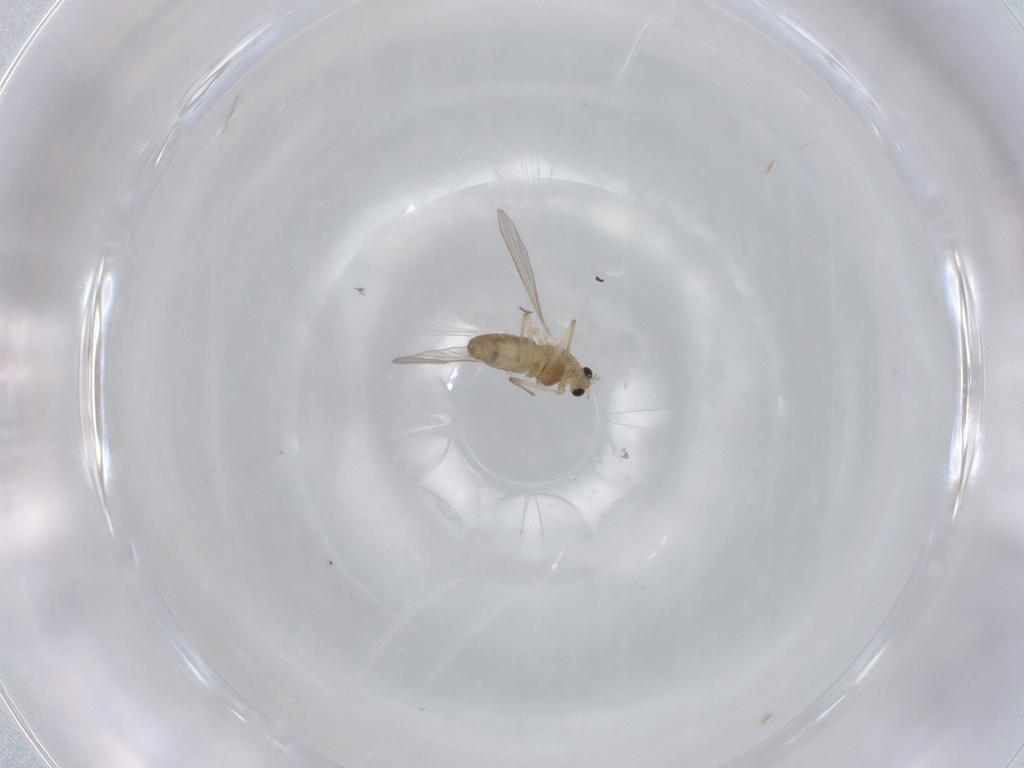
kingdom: Animalia
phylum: Arthropoda
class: Insecta
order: Diptera
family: Chironomidae
